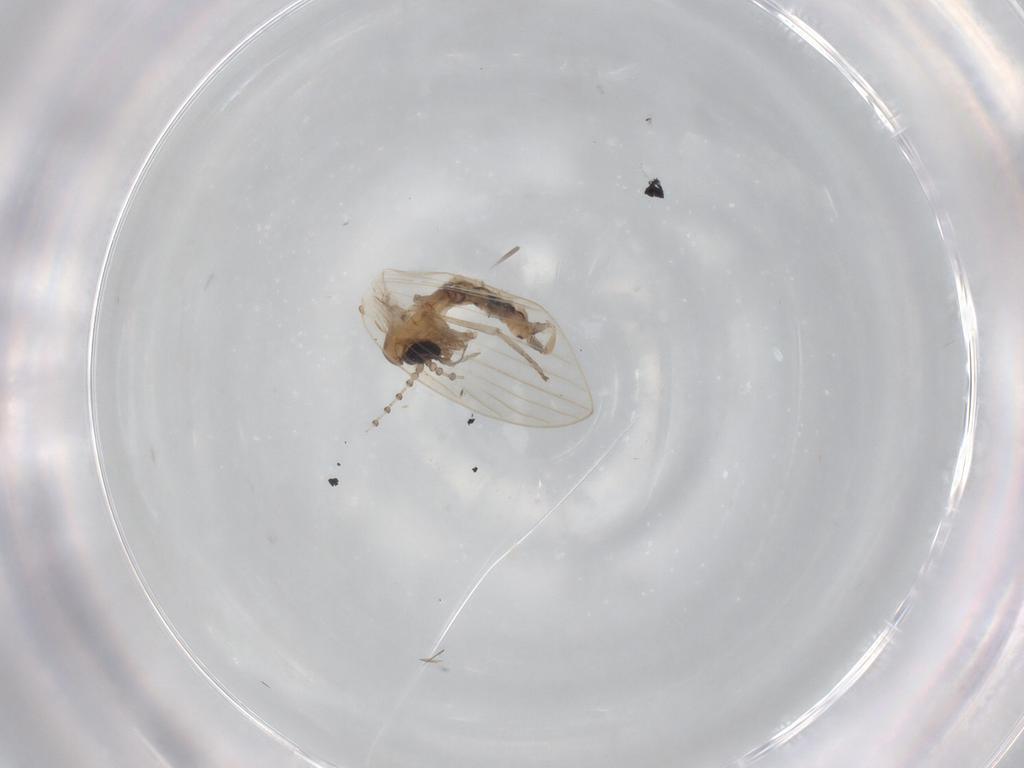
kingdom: Animalia
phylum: Arthropoda
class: Insecta
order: Diptera
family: Psychodidae
